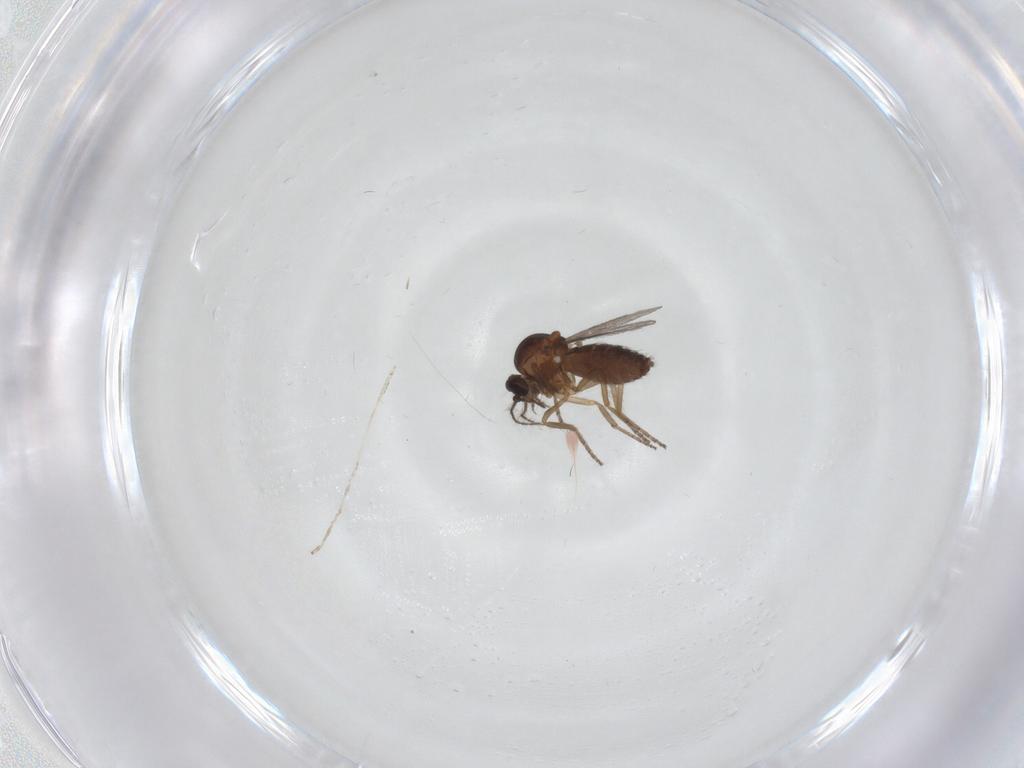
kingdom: Animalia
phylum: Arthropoda
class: Insecta
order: Diptera
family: Ceratopogonidae
